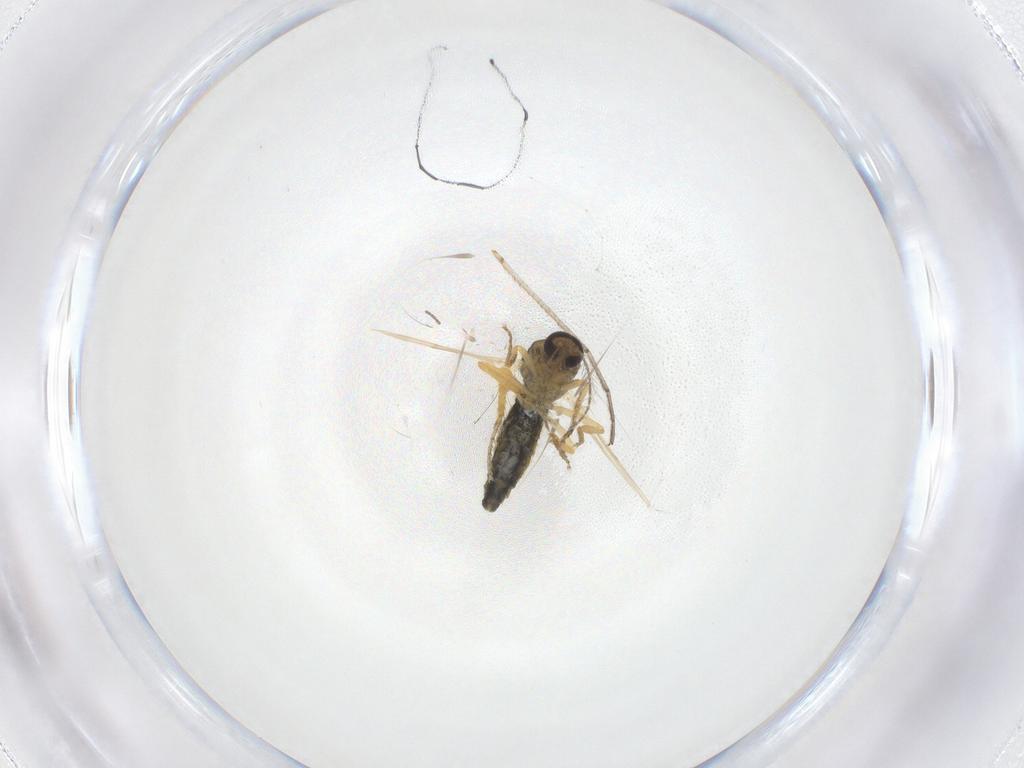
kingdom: Animalia
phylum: Arthropoda
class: Insecta
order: Diptera
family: Ceratopogonidae
